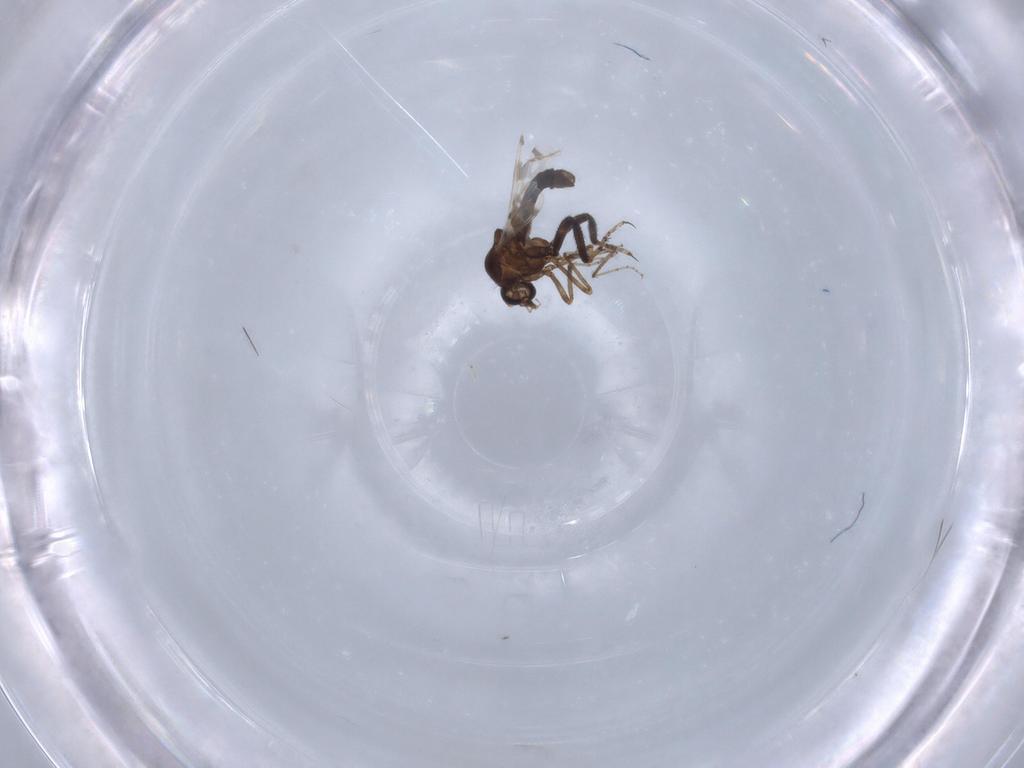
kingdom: Animalia
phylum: Arthropoda
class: Insecta
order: Diptera
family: Ceratopogonidae
